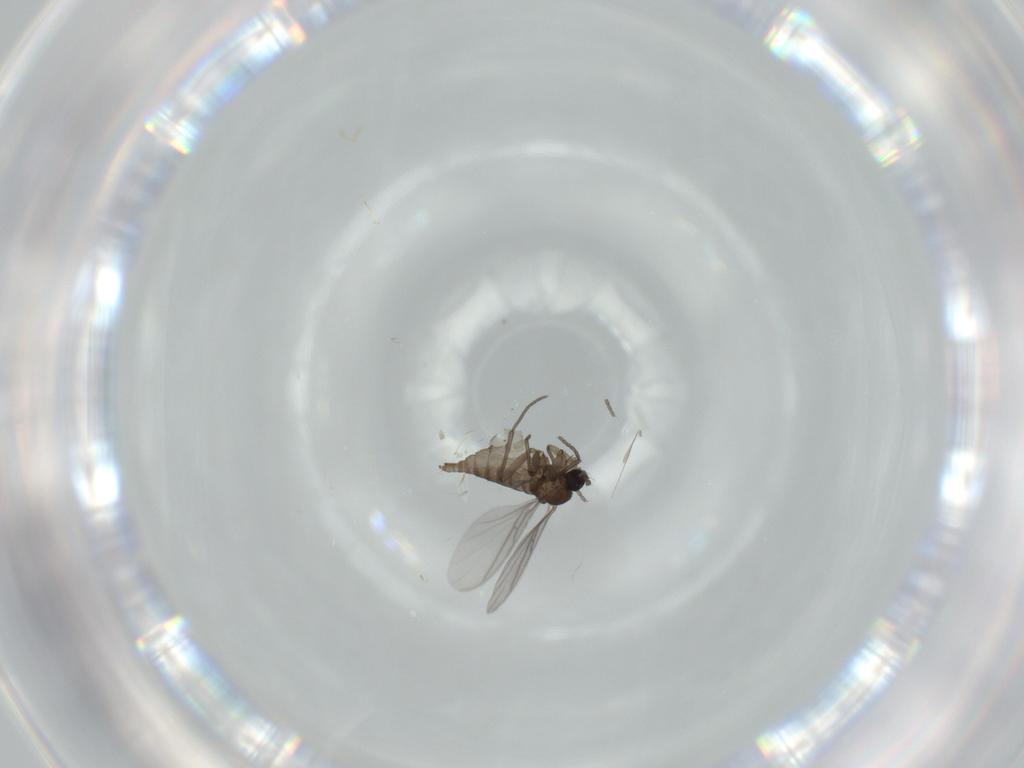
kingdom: Animalia
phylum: Arthropoda
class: Insecta
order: Diptera
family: Sciaridae
